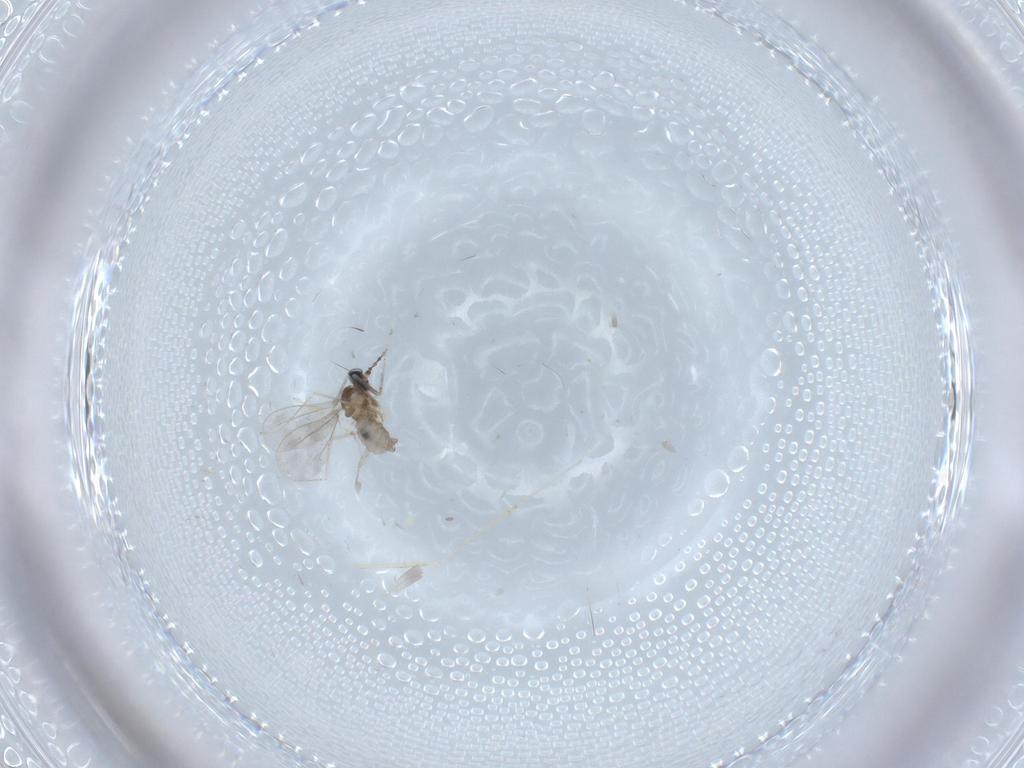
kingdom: Animalia
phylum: Arthropoda
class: Insecta
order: Diptera
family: Cecidomyiidae
